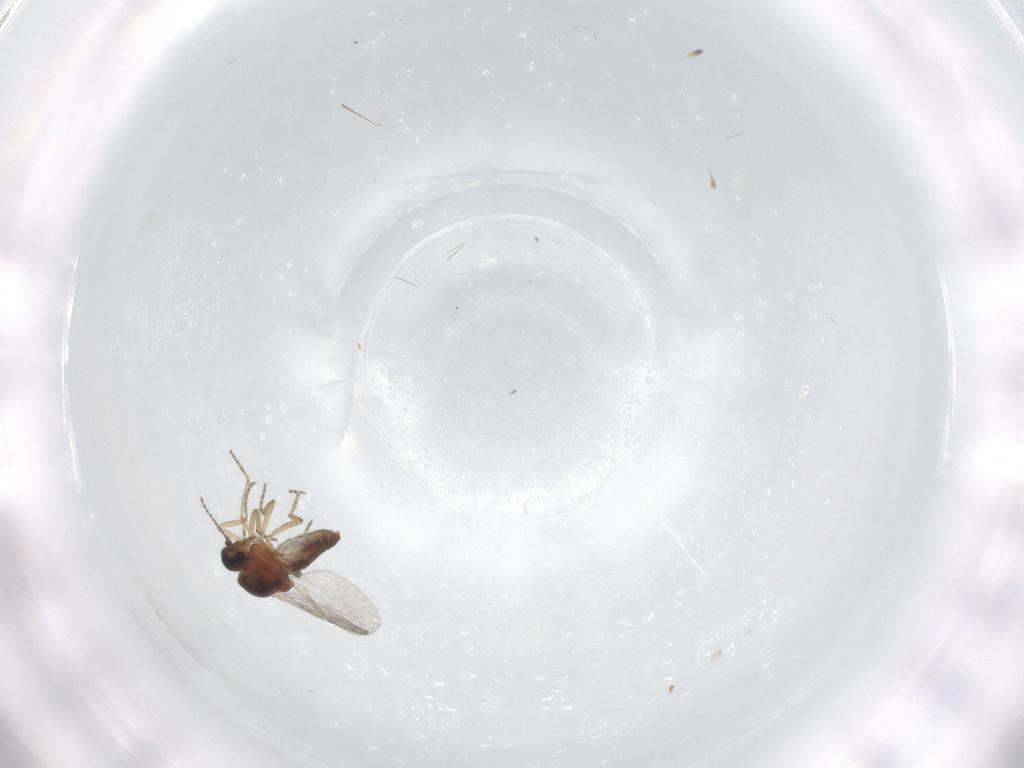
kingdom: Animalia
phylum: Arthropoda
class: Insecta
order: Diptera
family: Ceratopogonidae
